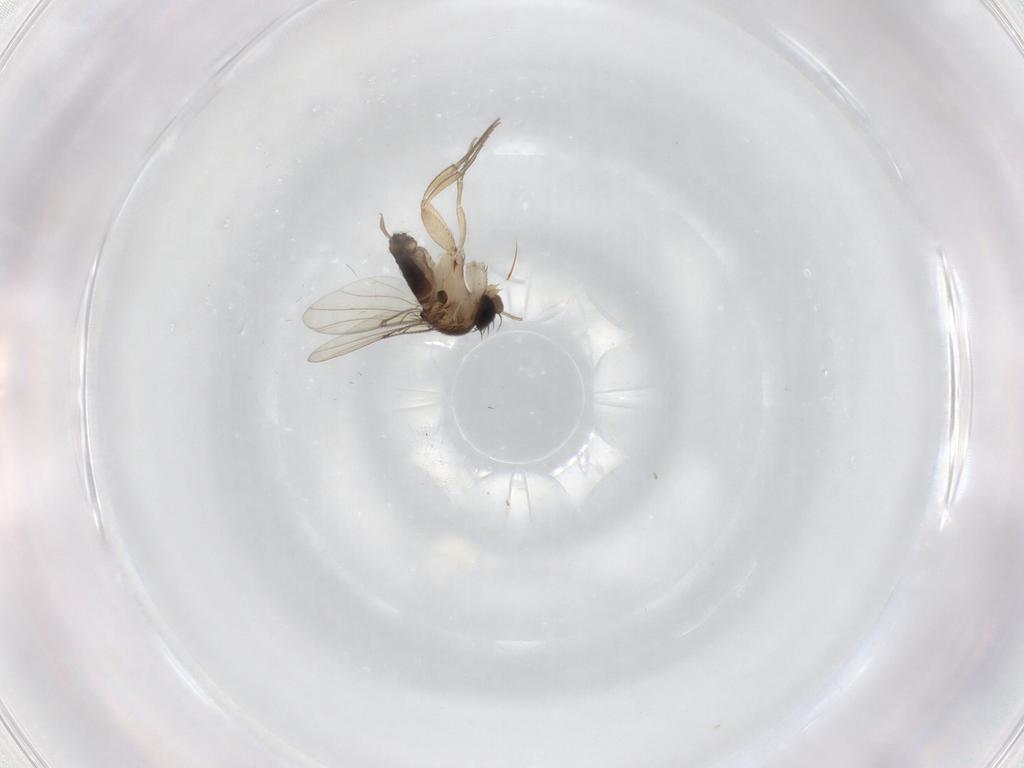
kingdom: Animalia
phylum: Arthropoda
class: Insecta
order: Diptera
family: Phoridae
